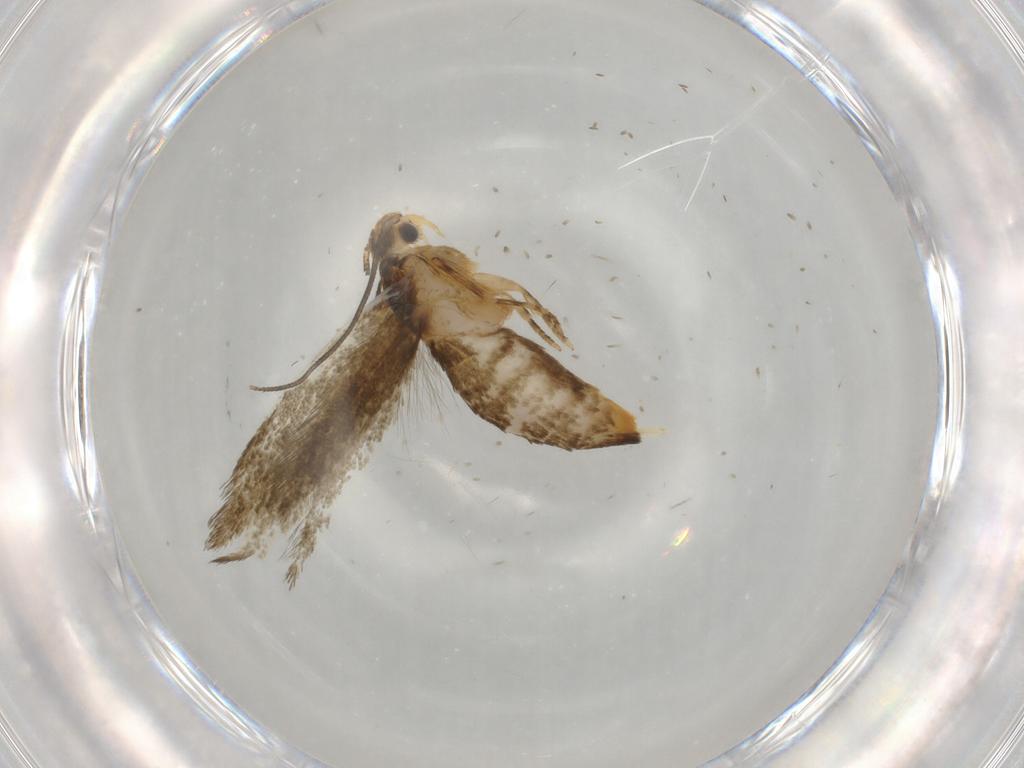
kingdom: Animalia
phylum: Arthropoda
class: Insecta
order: Lepidoptera
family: Tineidae
